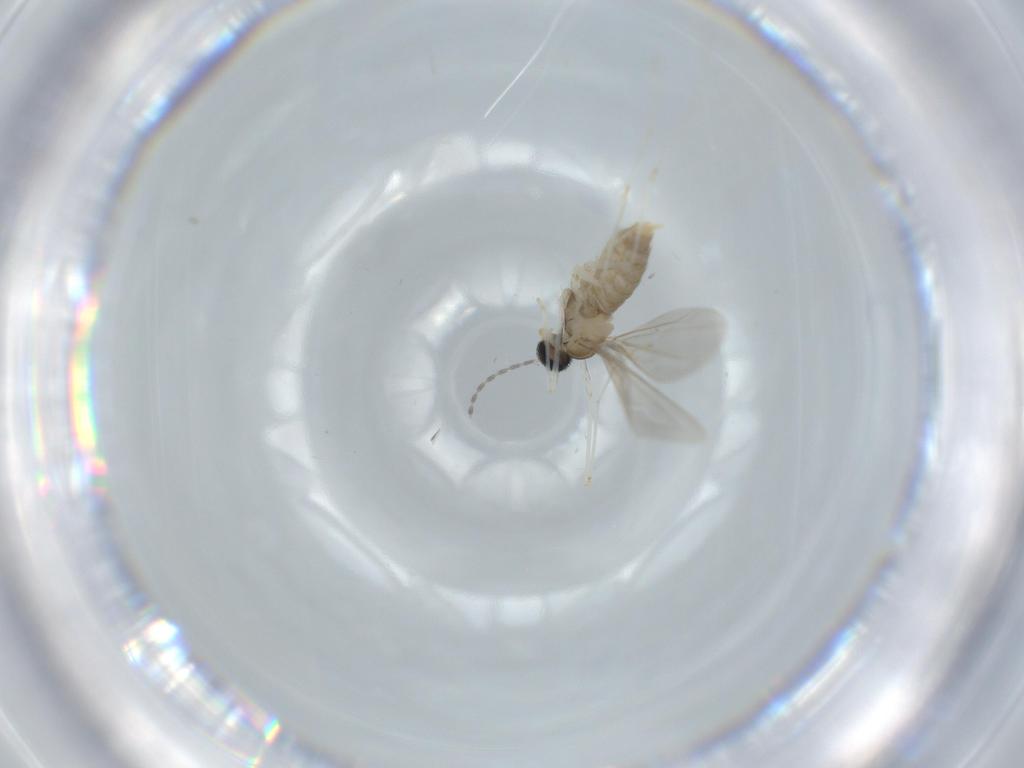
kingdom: Animalia
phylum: Arthropoda
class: Insecta
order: Diptera
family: Cecidomyiidae
